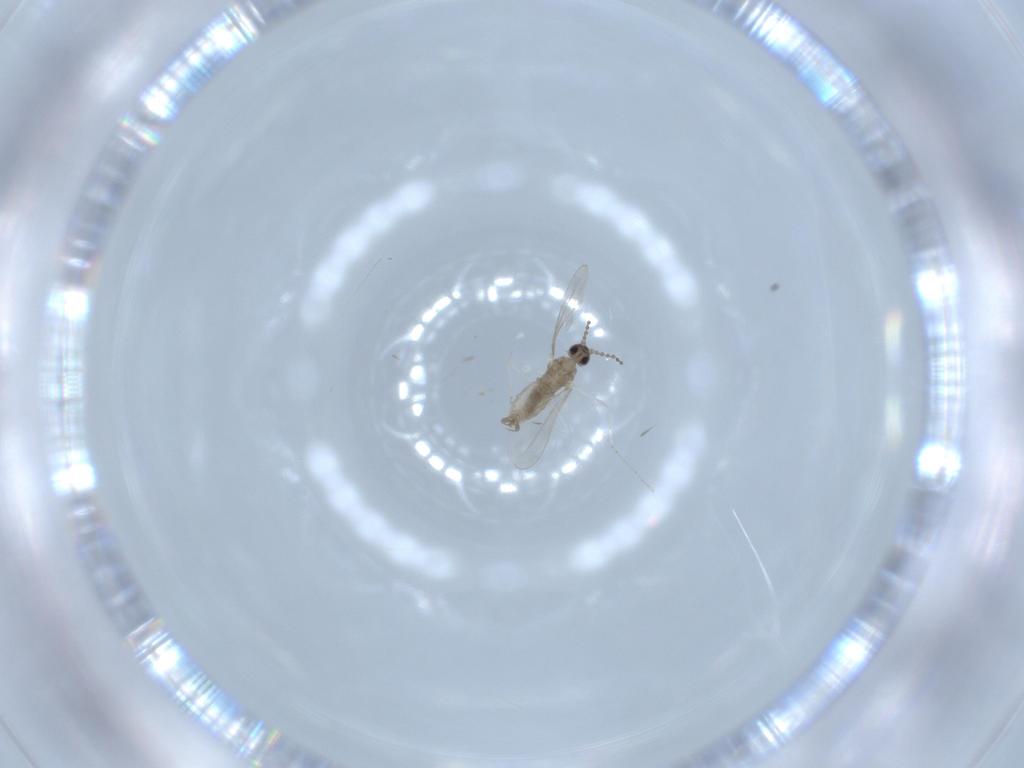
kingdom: Animalia
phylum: Arthropoda
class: Insecta
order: Diptera
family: Cecidomyiidae
